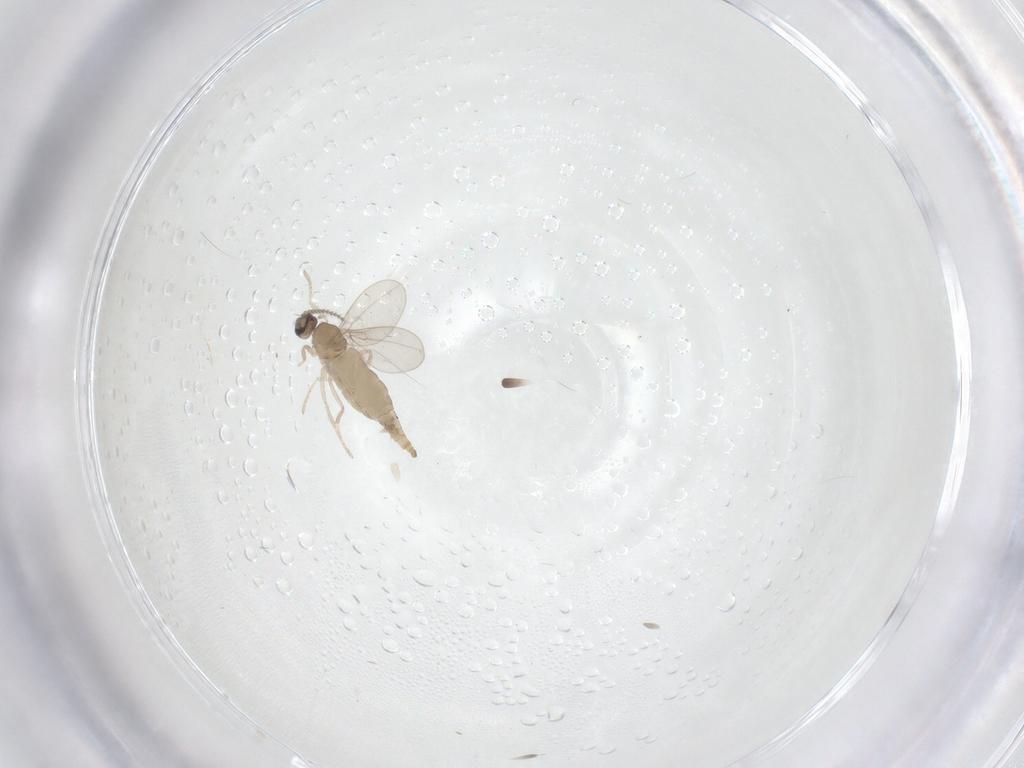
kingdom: Animalia
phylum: Arthropoda
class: Insecta
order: Diptera
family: Cecidomyiidae
